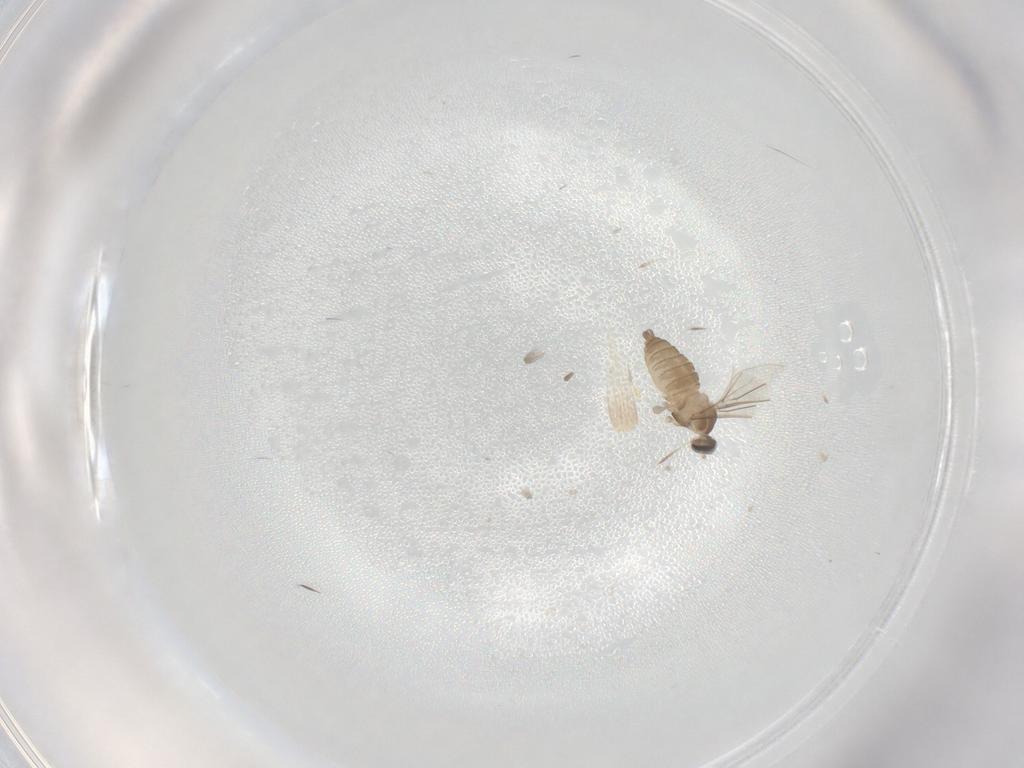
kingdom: Animalia
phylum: Arthropoda
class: Insecta
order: Diptera
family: Cecidomyiidae
